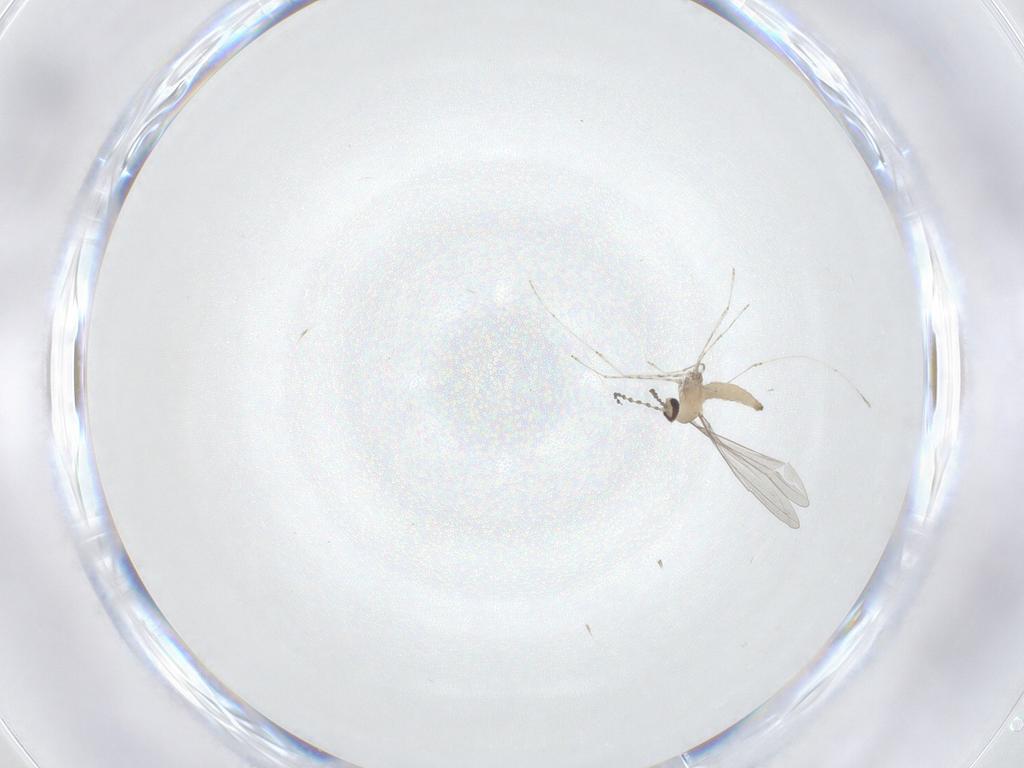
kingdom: Animalia
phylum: Arthropoda
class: Insecta
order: Diptera
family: Cecidomyiidae
